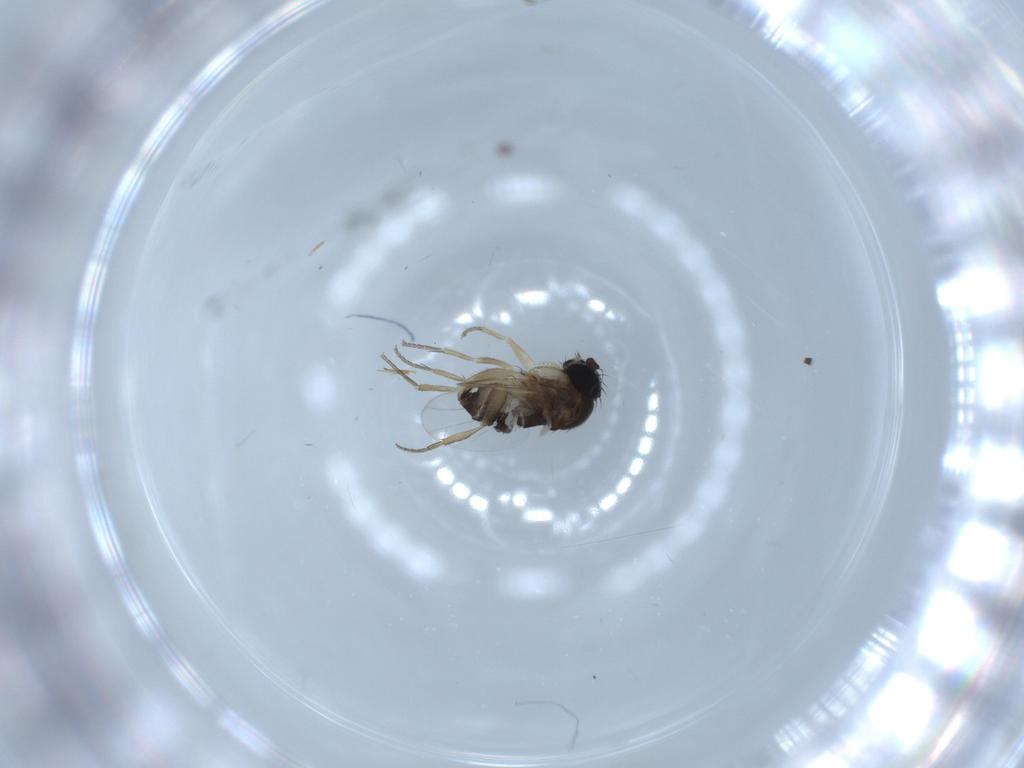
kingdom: Animalia
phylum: Arthropoda
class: Insecta
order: Diptera
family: Phoridae
